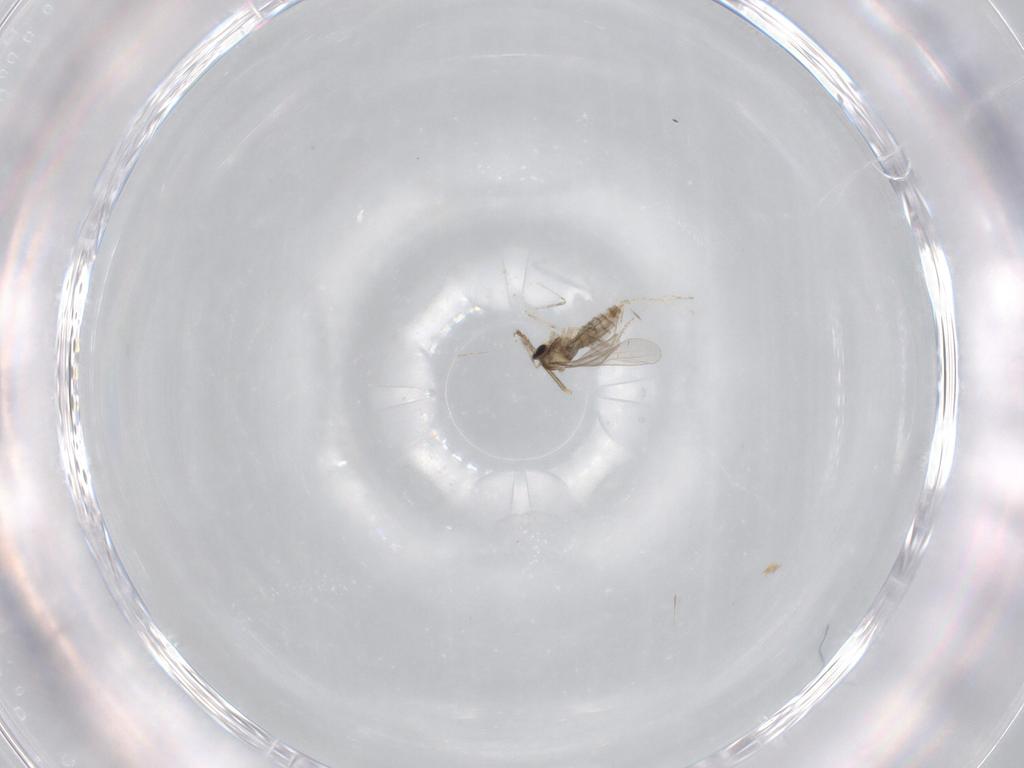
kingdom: Animalia
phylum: Arthropoda
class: Insecta
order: Diptera
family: Drosophilidae
